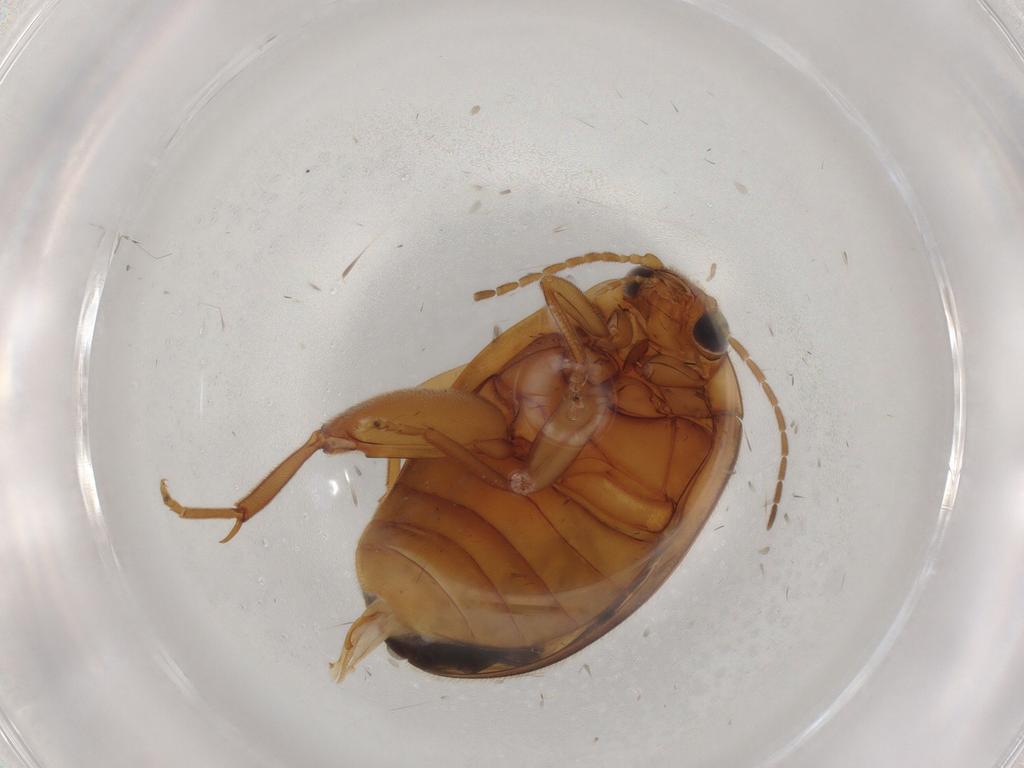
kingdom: Animalia
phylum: Arthropoda
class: Insecta
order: Coleoptera
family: Scirtidae
